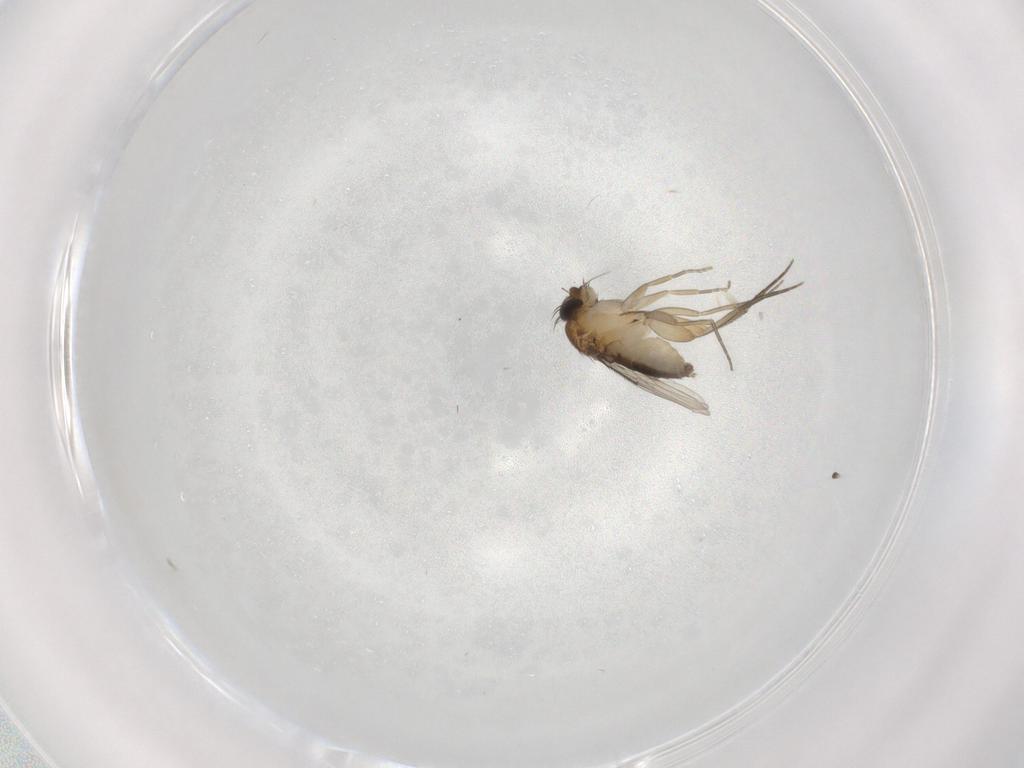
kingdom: Animalia
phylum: Arthropoda
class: Insecta
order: Diptera
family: Phoridae
